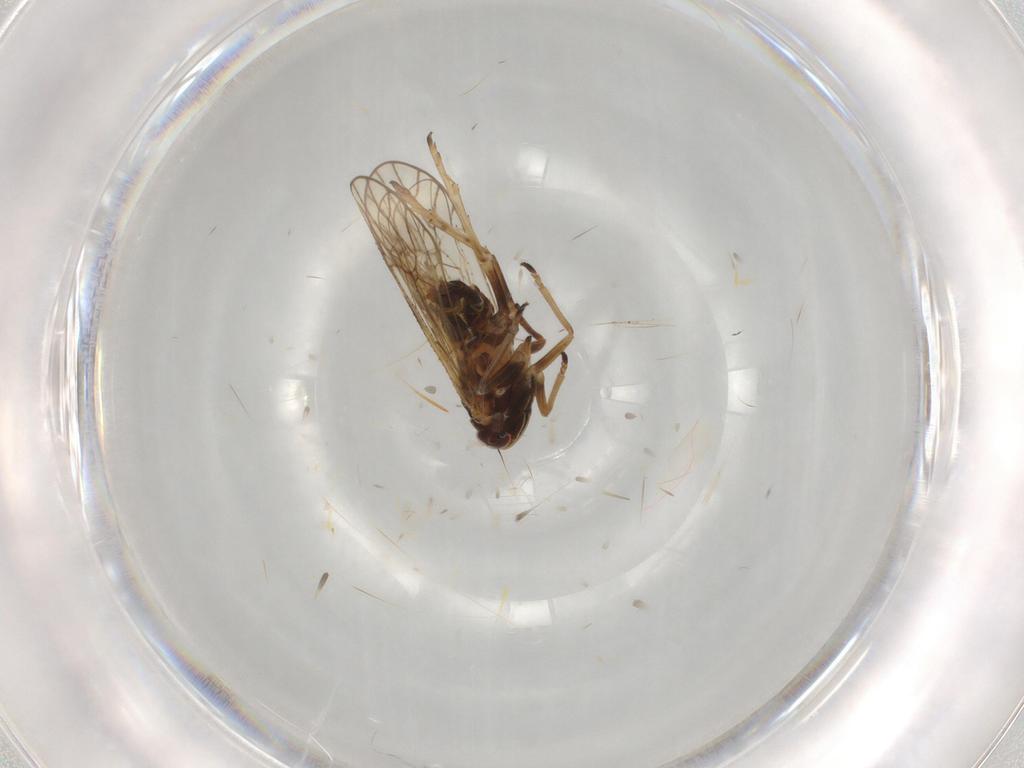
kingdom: Animalia
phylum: Arthropoda
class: Insecta
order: Hemiptera
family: Delphacidae
